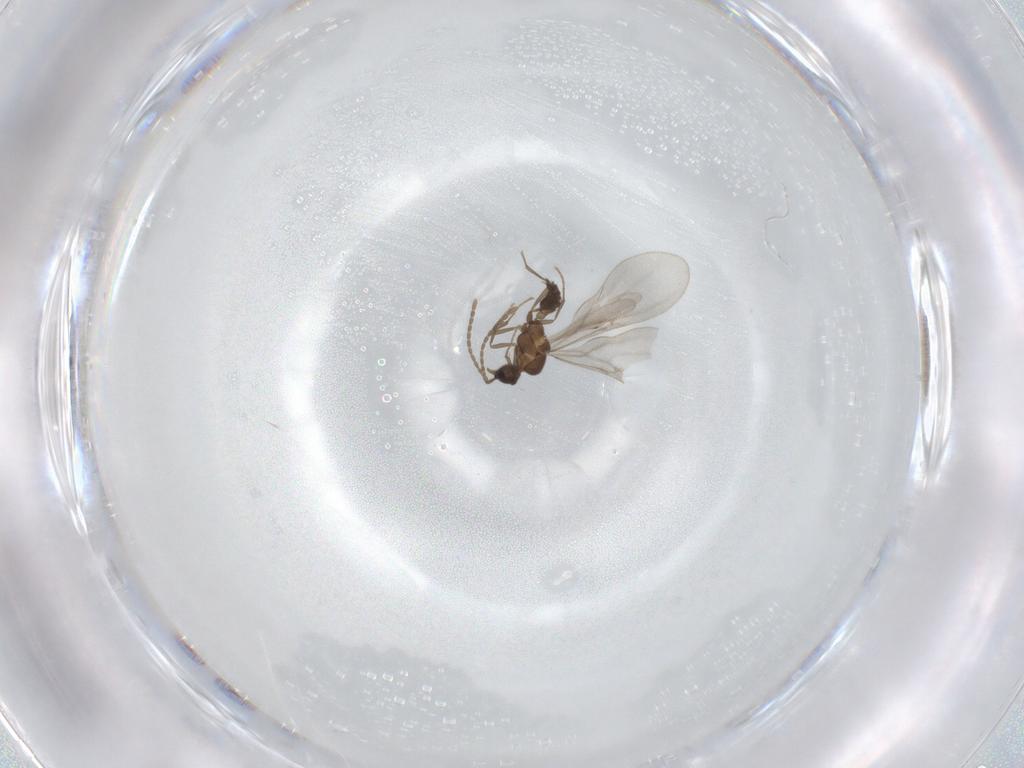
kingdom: Animalia
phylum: Arthropoda
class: Insecta
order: Hymenoptera
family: Formicidae
